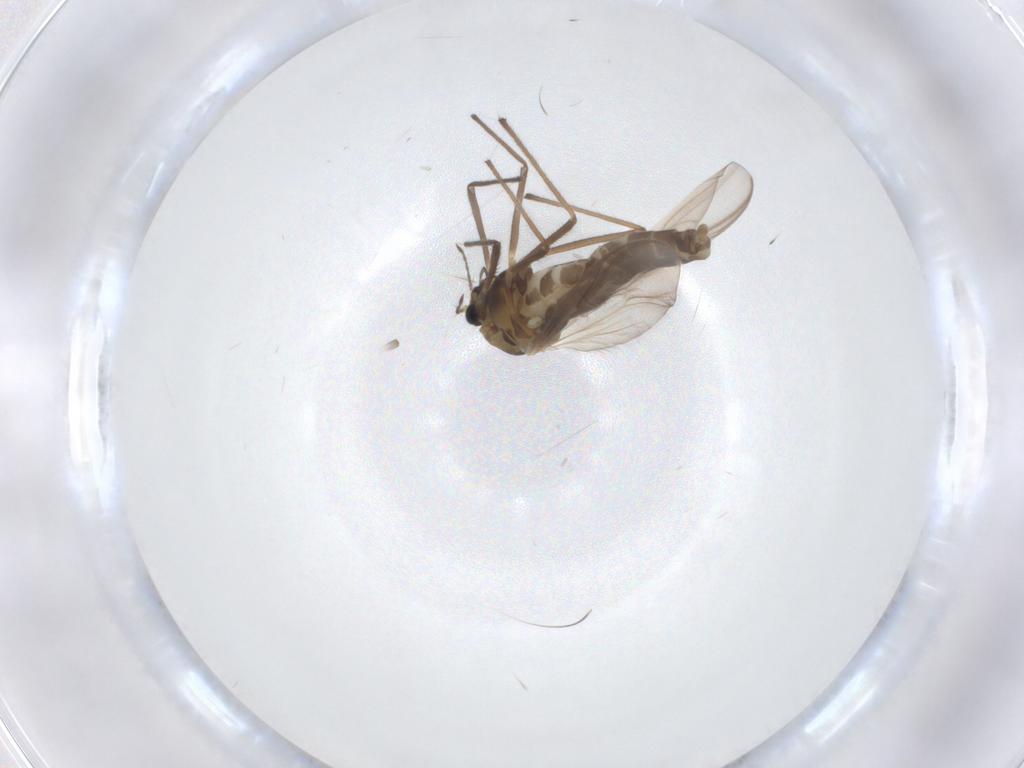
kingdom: Animalia
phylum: Arthropoda
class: Insecta
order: Diptera
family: Chironomidae
